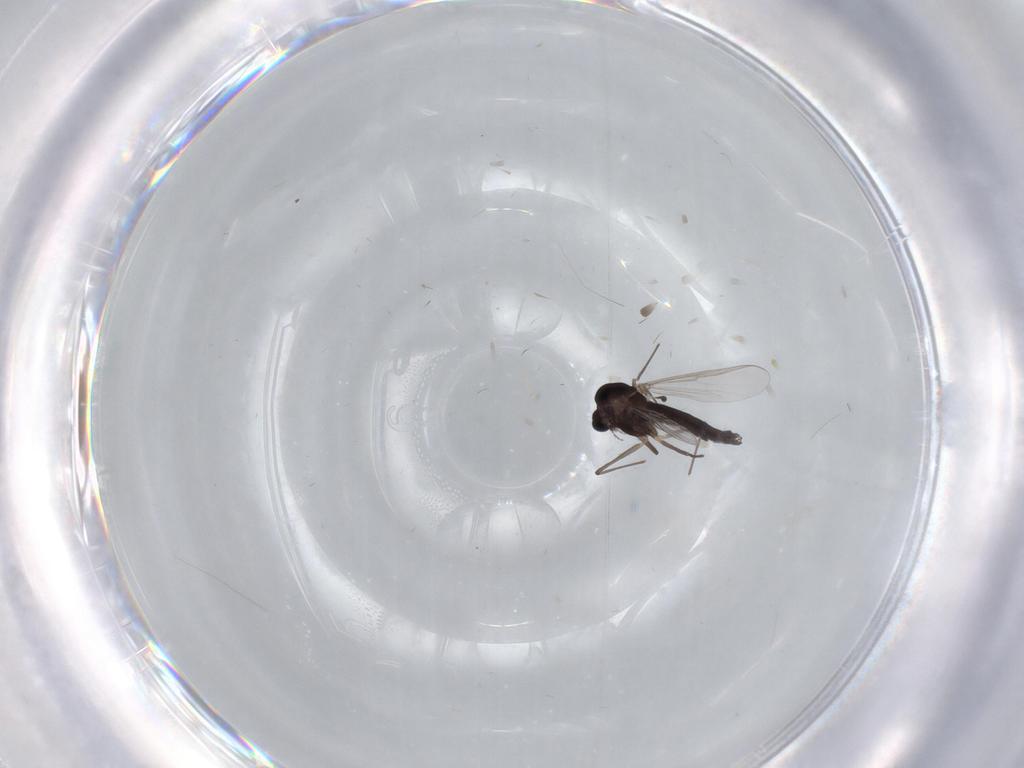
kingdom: Animalia
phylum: Arthropoda
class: Insecta
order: Diptera
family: Chironomidae
